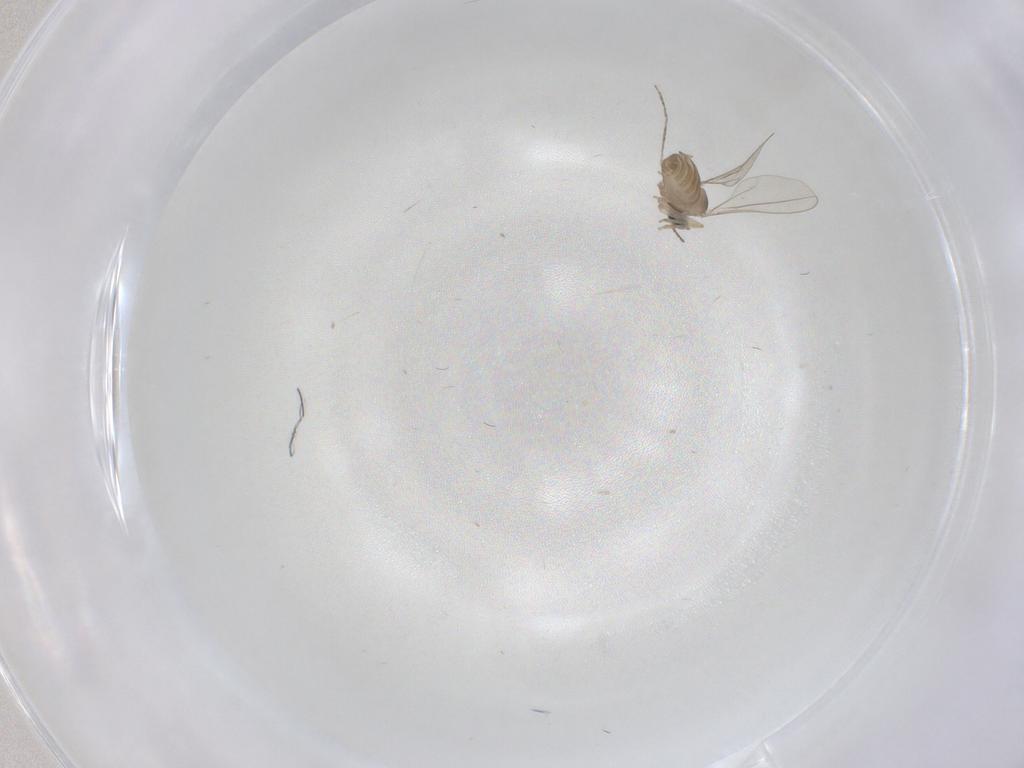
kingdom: Animalia
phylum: Arthropoda
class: Insecta
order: Diptera
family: Cecidomyiidae
